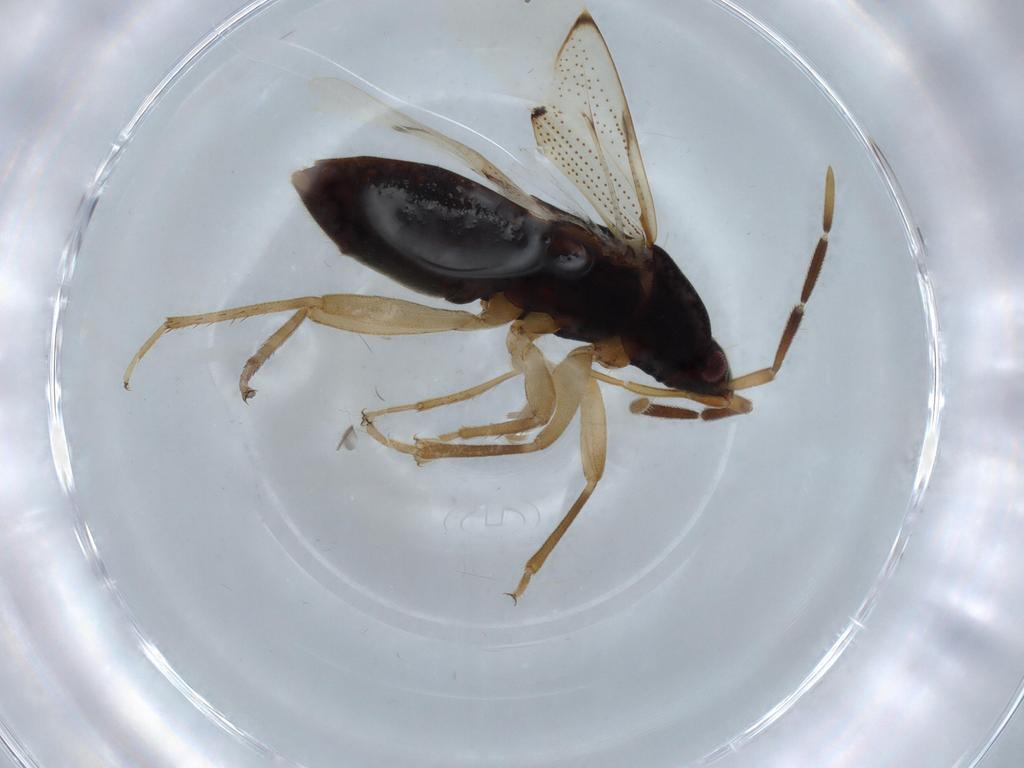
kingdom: Animalia
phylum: Arthropoda
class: Insecta
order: Hemiptera
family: Rhyparochromidae
